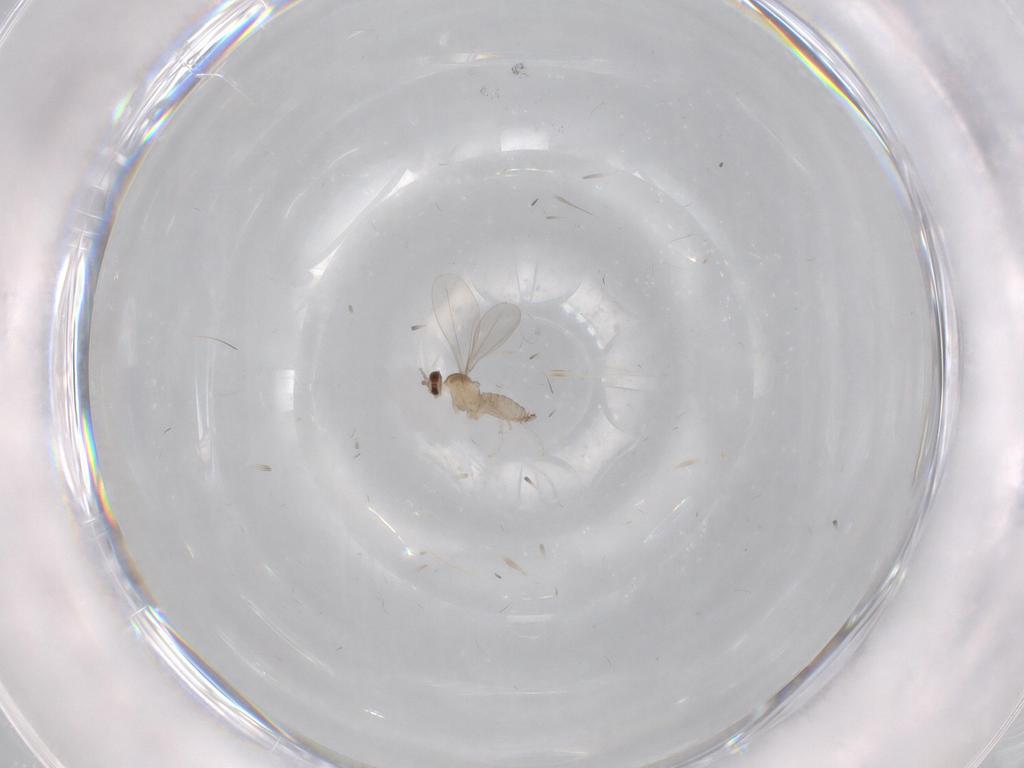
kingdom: Animalia
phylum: Arthropoda
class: Insecta
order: Diptera
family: Cecidomyiidae
